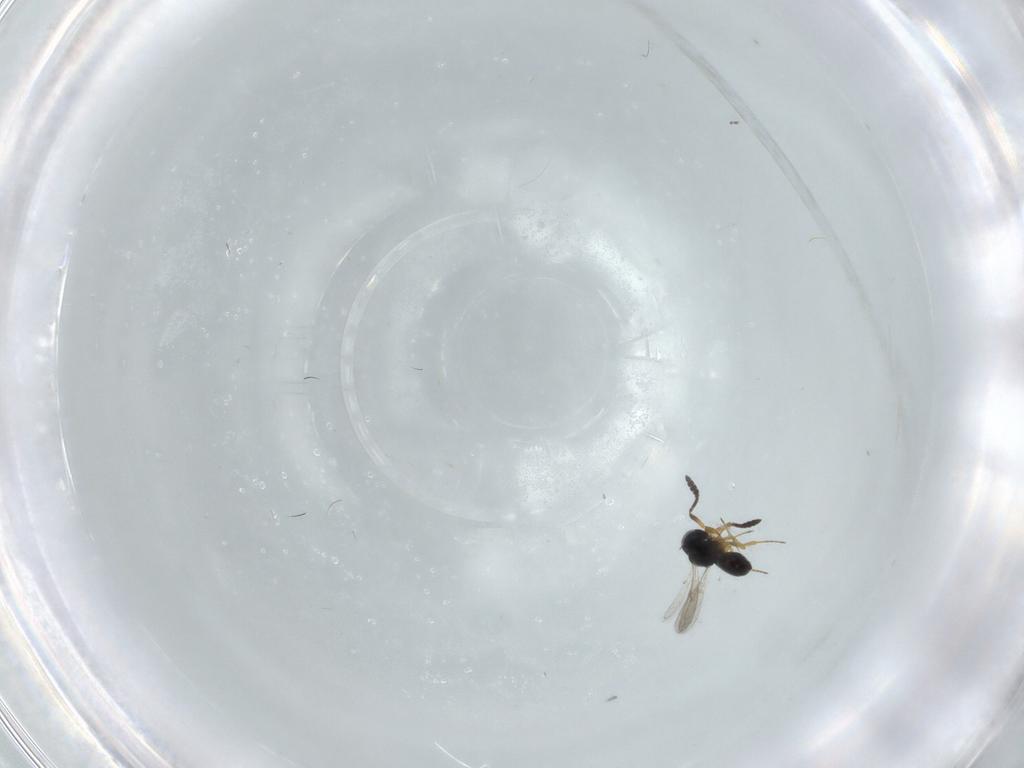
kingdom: Animalia
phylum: Arthropoda
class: Insecta
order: Hymenoptera
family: Scelionidae
